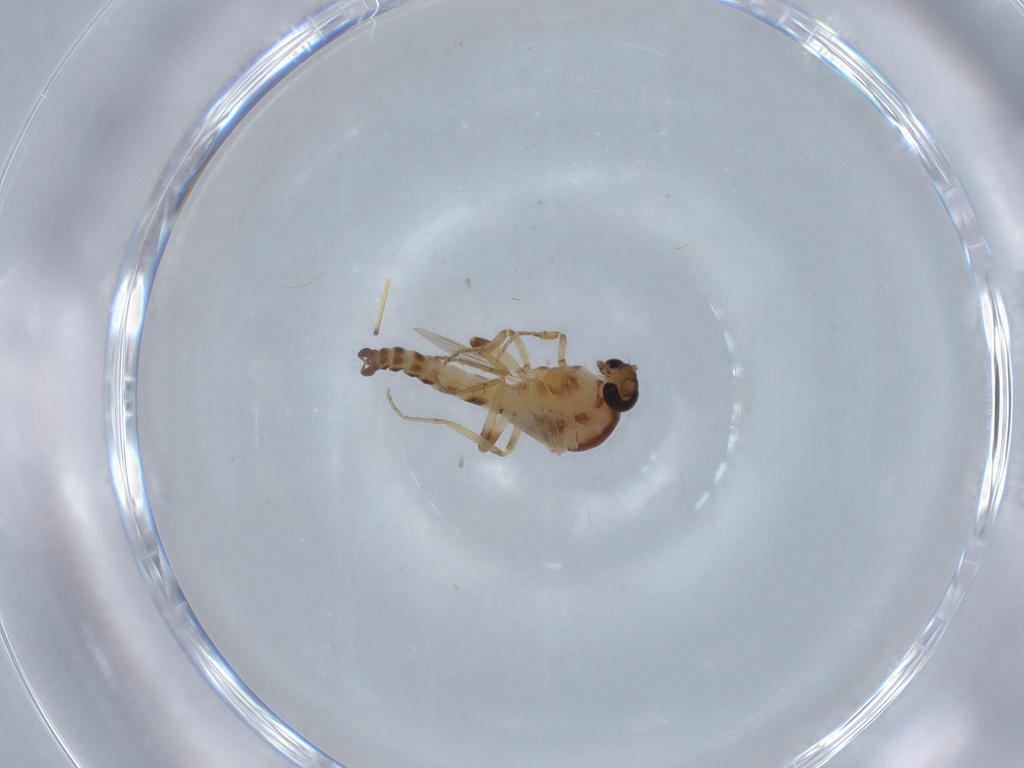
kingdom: Animalia
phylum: Arthropoda
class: Insecta
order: Diptera
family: Ceratopogonidae
